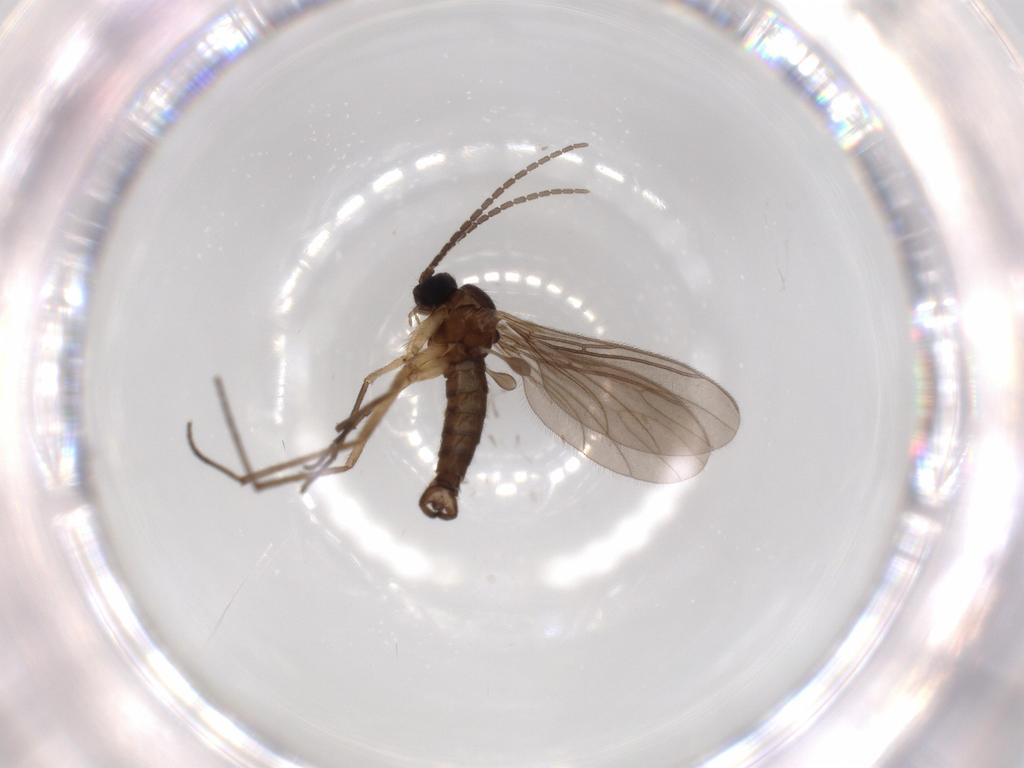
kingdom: Animalia
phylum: Arthropoda
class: Insecta
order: Diptera
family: Sciaridae
